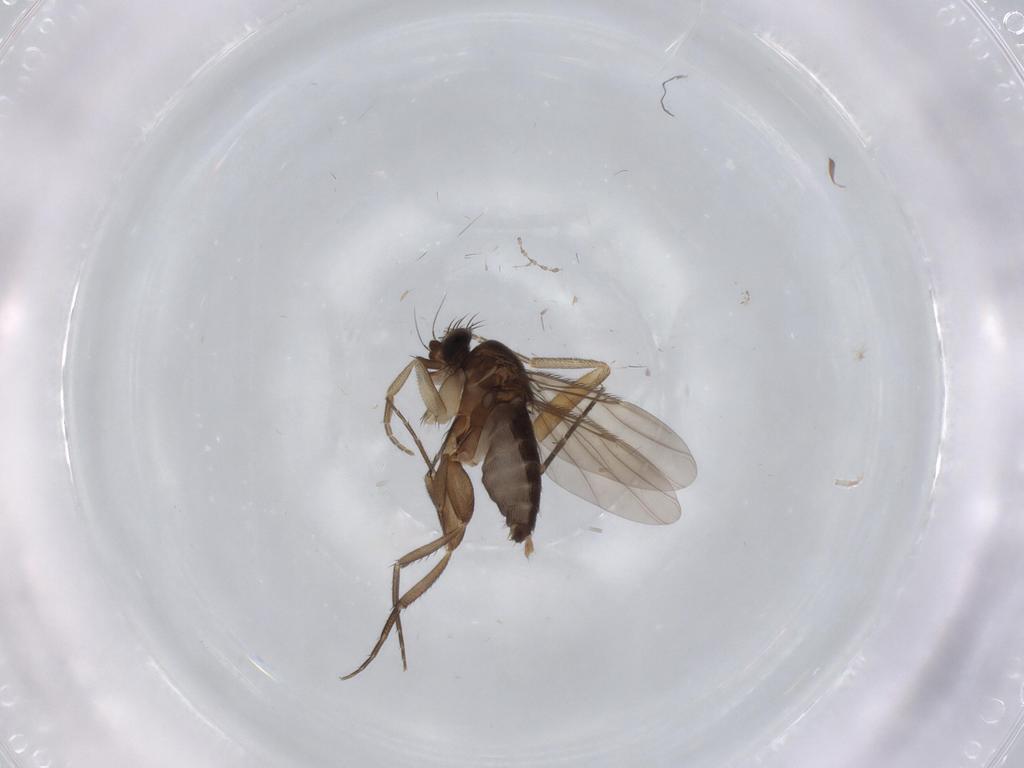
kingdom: Animalia
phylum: Arthropoda
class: Insecta
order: Diptera
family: Phoridae
